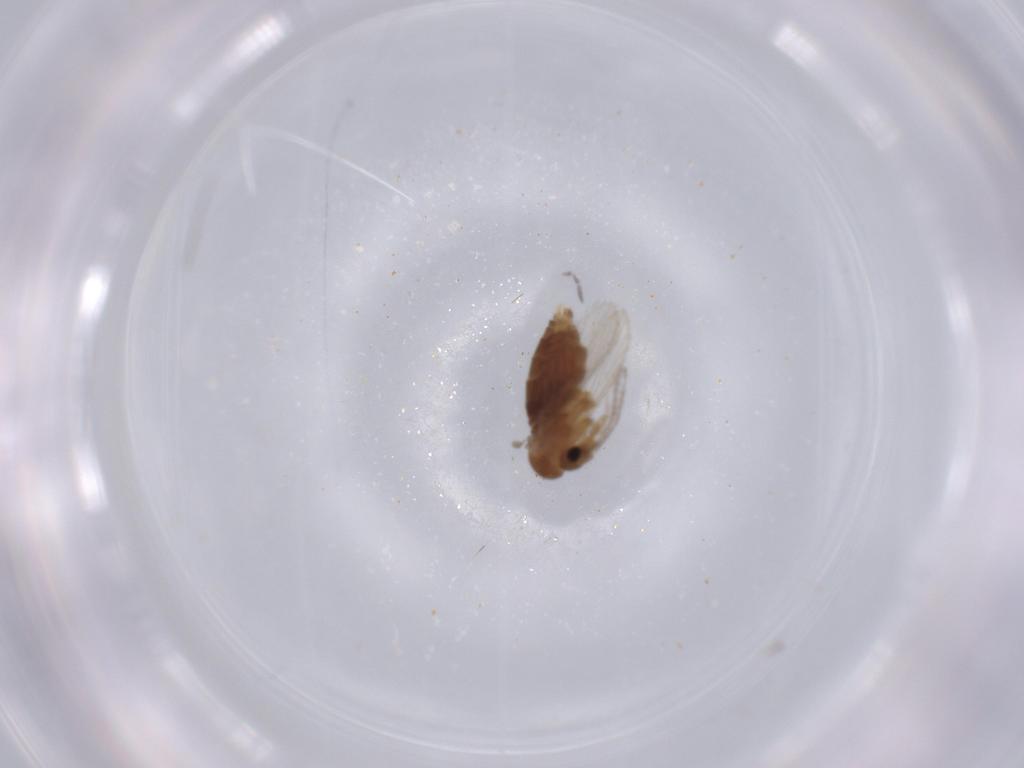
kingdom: Animalia
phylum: Arthropoda
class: Insecta
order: Diptera
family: Psychodidae
